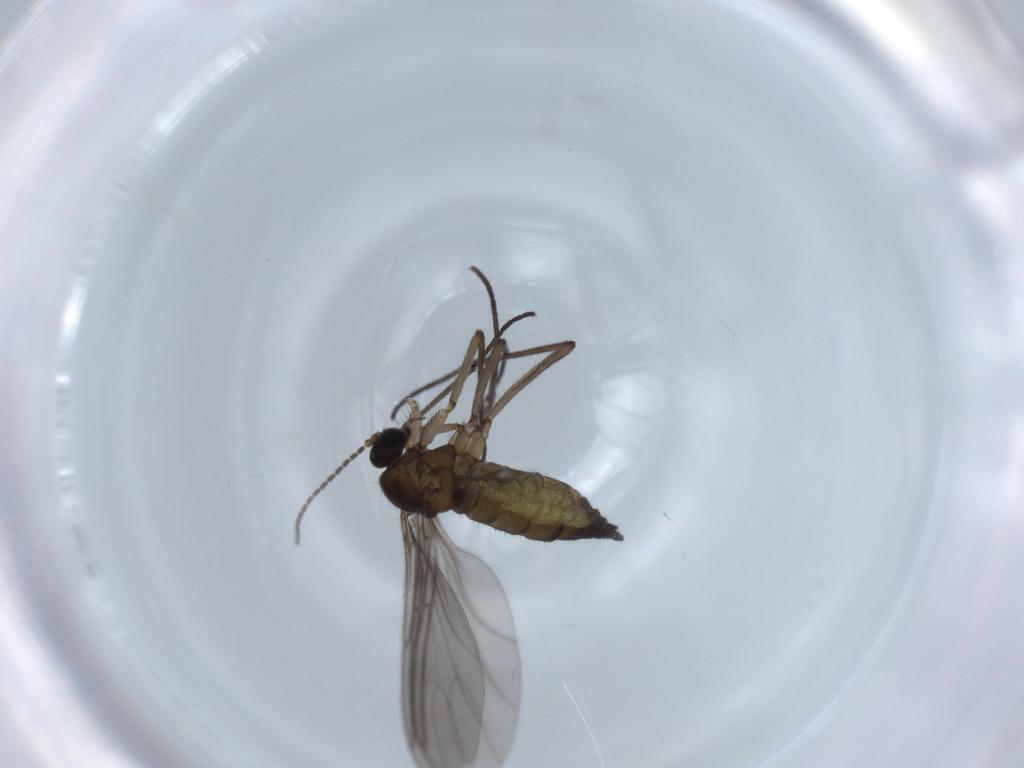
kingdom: Animalia
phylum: Arthropoda
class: Insecta
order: Diptera
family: Sciaridae
